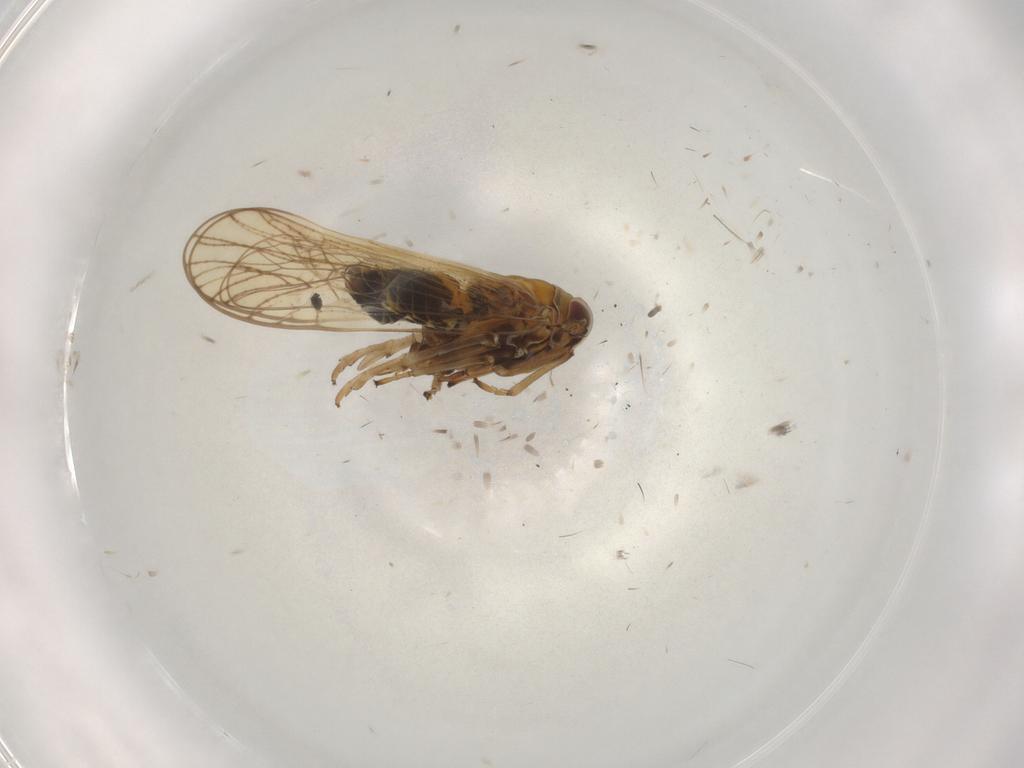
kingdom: Animalia
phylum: Arthropoda
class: Insecta
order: Hemiptera
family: Delphacidae
